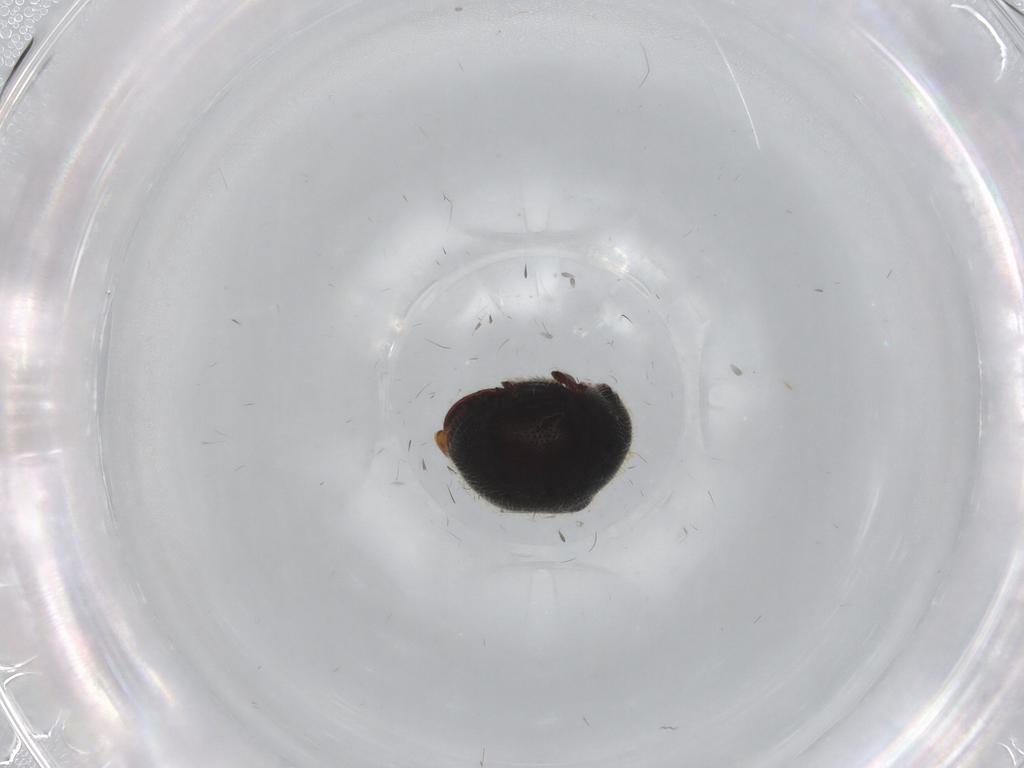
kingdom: Animalia
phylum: Arthropoda
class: Insecta
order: Coleoptera
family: Ptinidae
